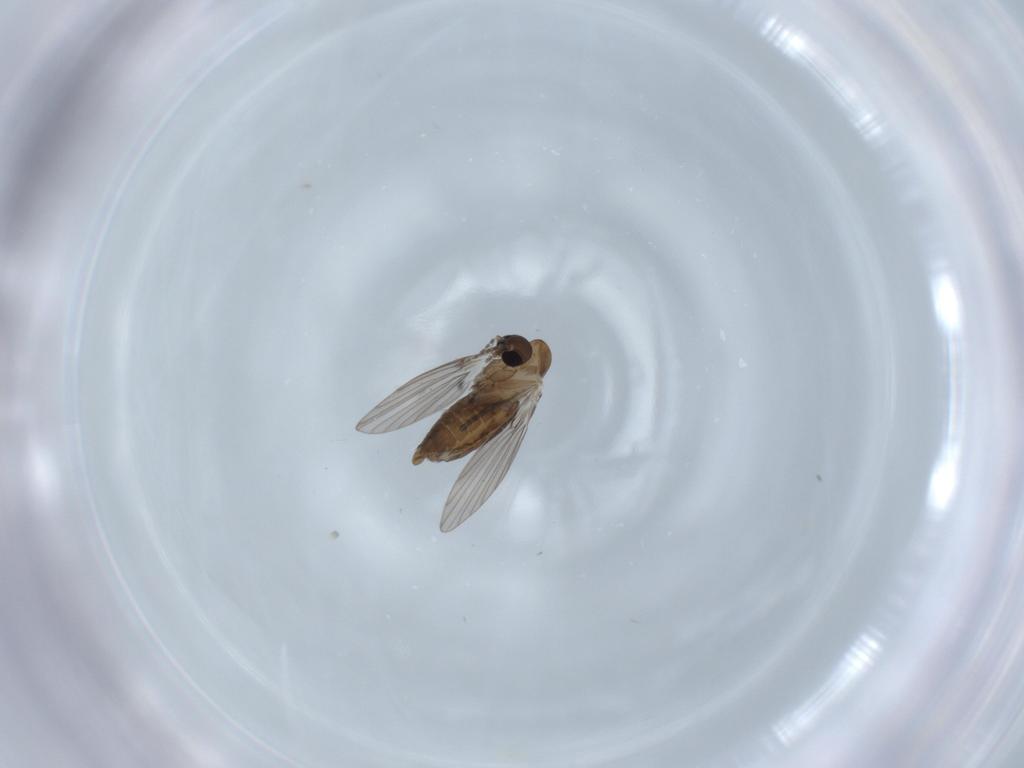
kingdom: Animalia
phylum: Arthropoda
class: Insecta
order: Diptera
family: Psychodidae
